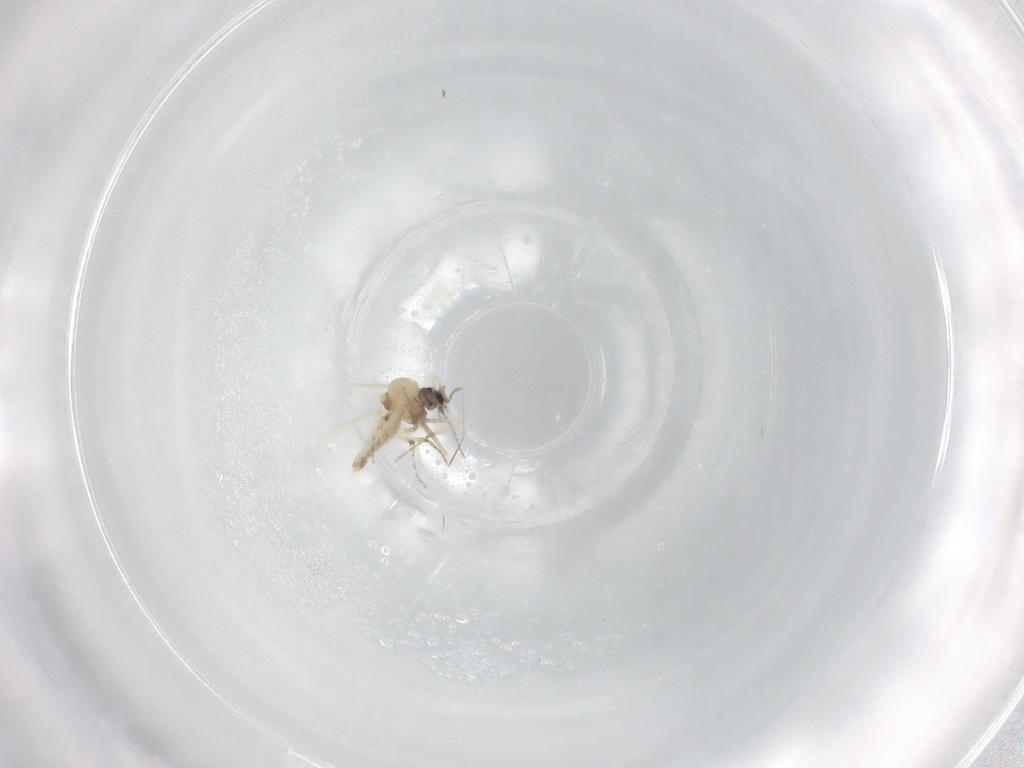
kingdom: Animalia
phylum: Arthropoda
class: Insecta
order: Diptera
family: Ceratopogonidae
